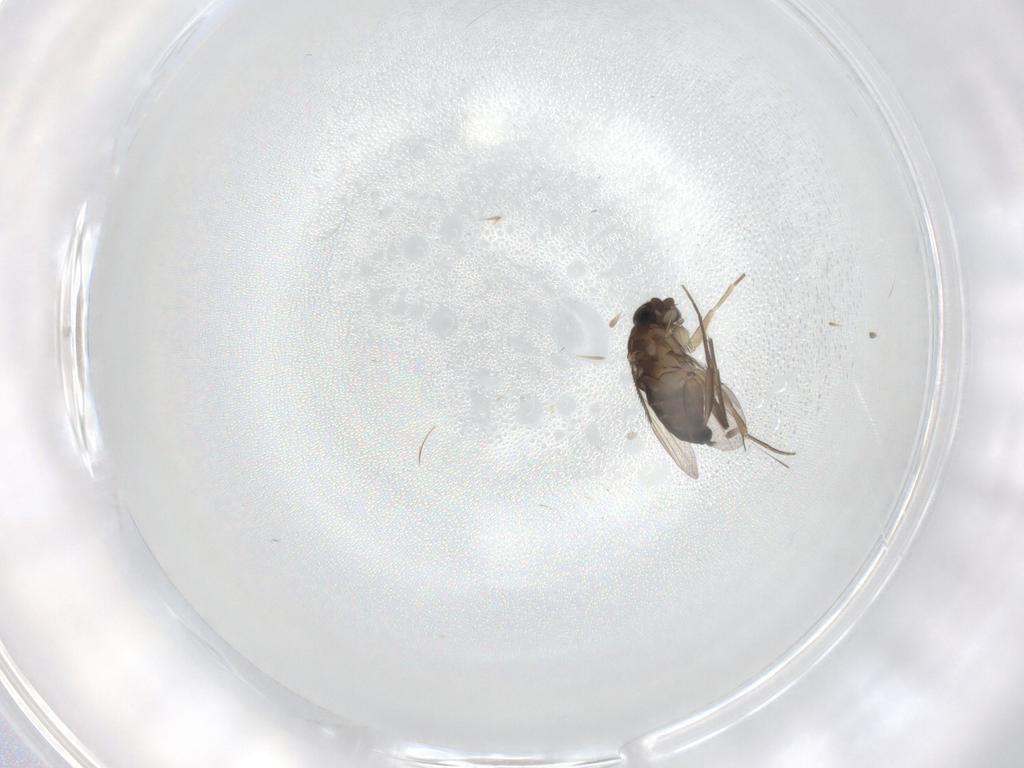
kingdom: Animalia
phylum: Arthropoda
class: Insecta
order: Diptera
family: Phoridae
